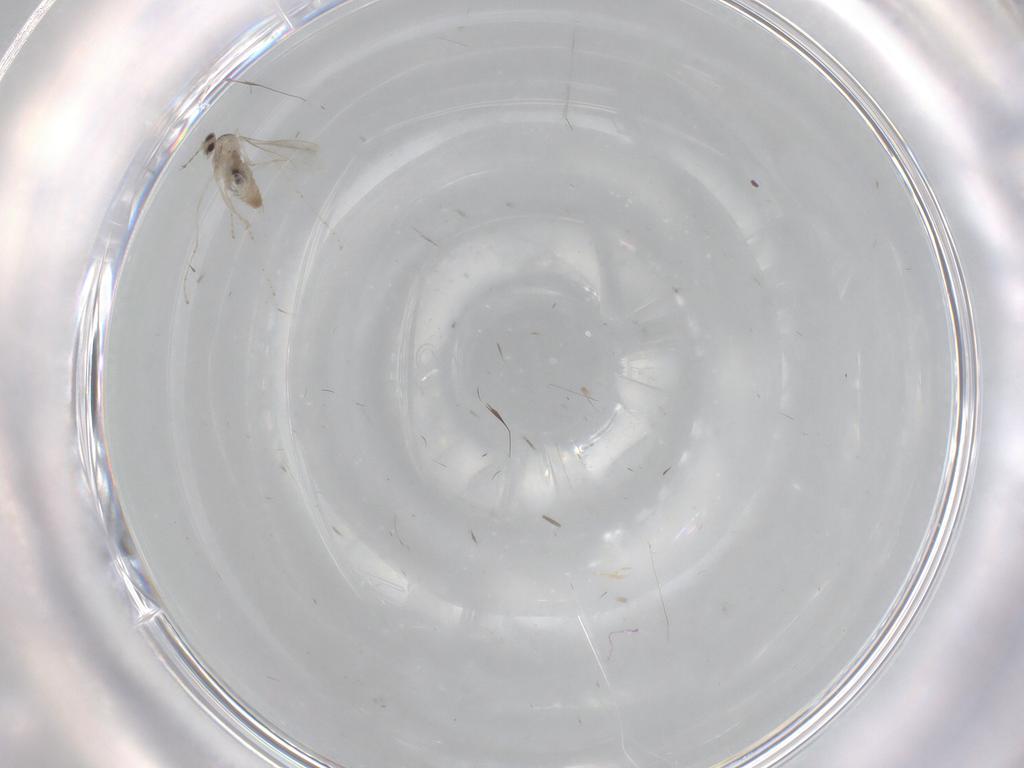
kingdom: Animalia
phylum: Arthropoda
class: Insecta
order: Diptera
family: Cecidomyiidae
